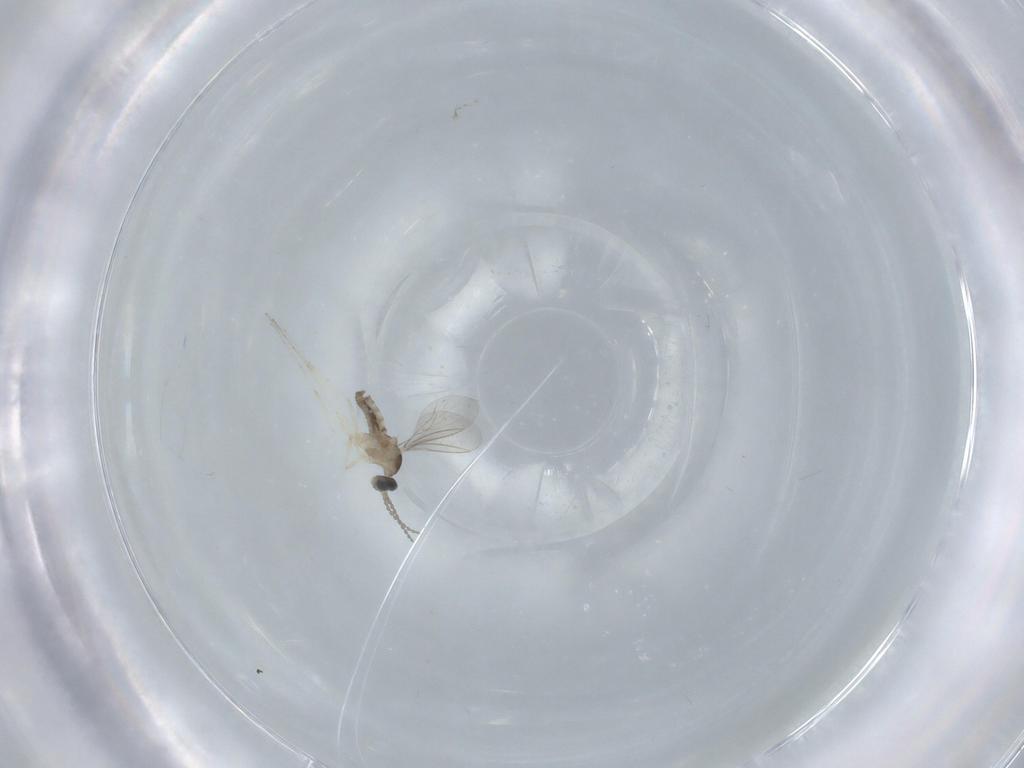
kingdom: Animalia
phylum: Arthropoda
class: Insecta
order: Diptera
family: Cecidomyiidae
